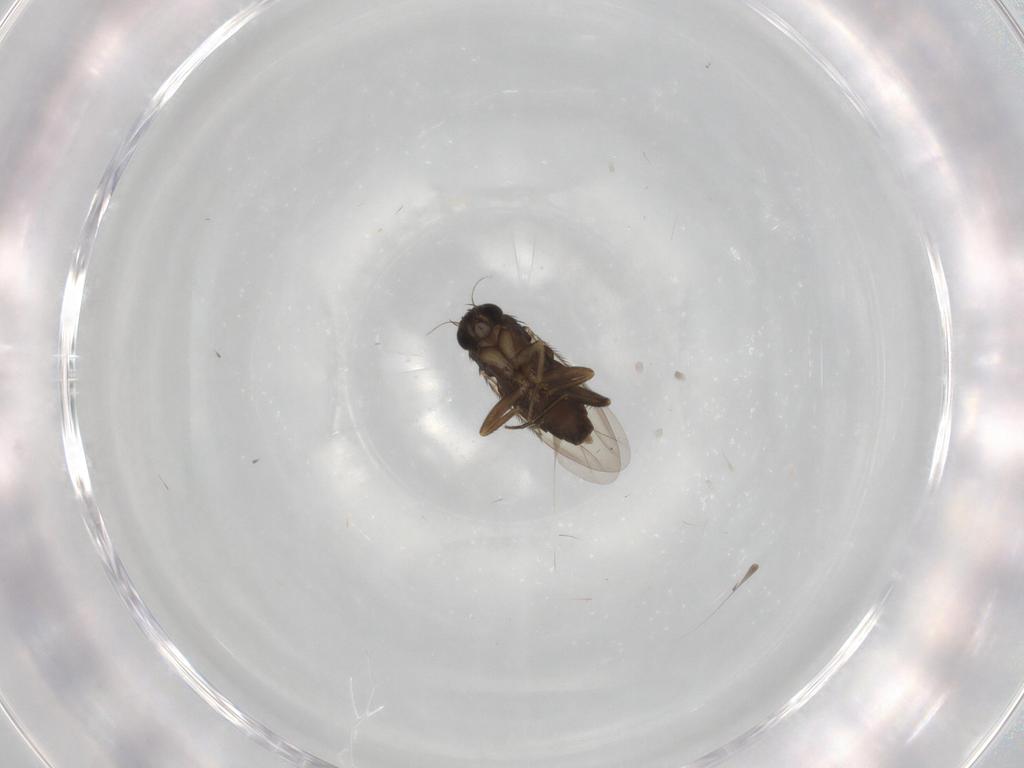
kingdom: Animalia
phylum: Arthropoda
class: Insecta
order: Diptera
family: Phoridae
